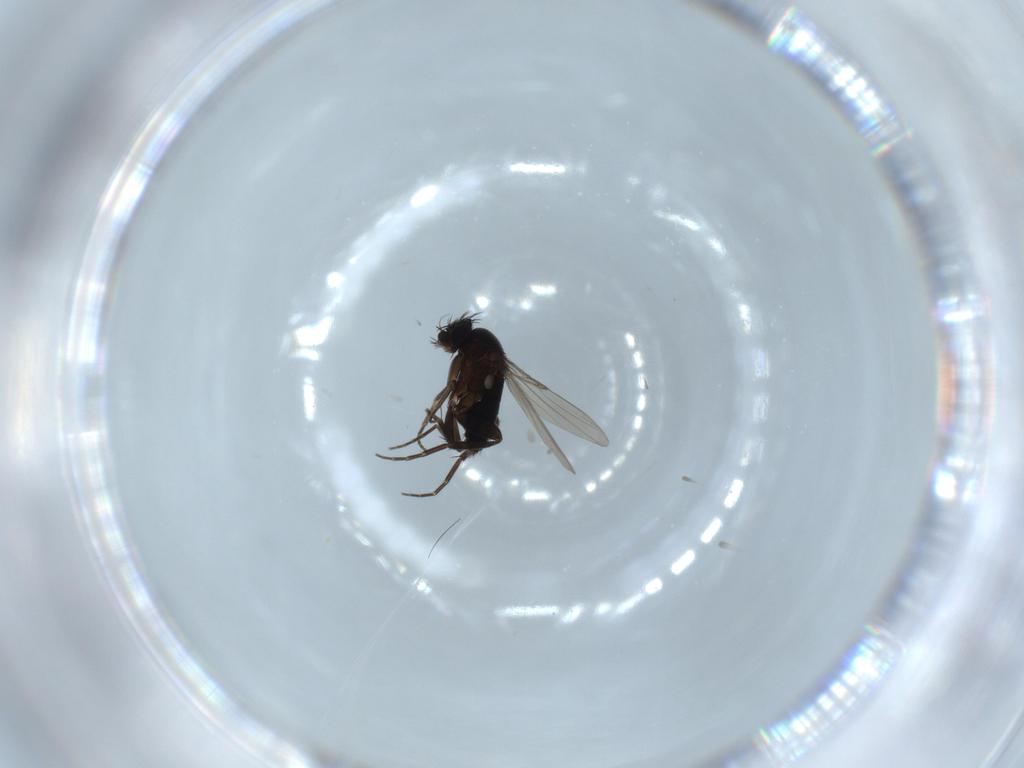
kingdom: Animalia
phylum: Arthropoda
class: Insecta
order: Diptera
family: Phoridae
